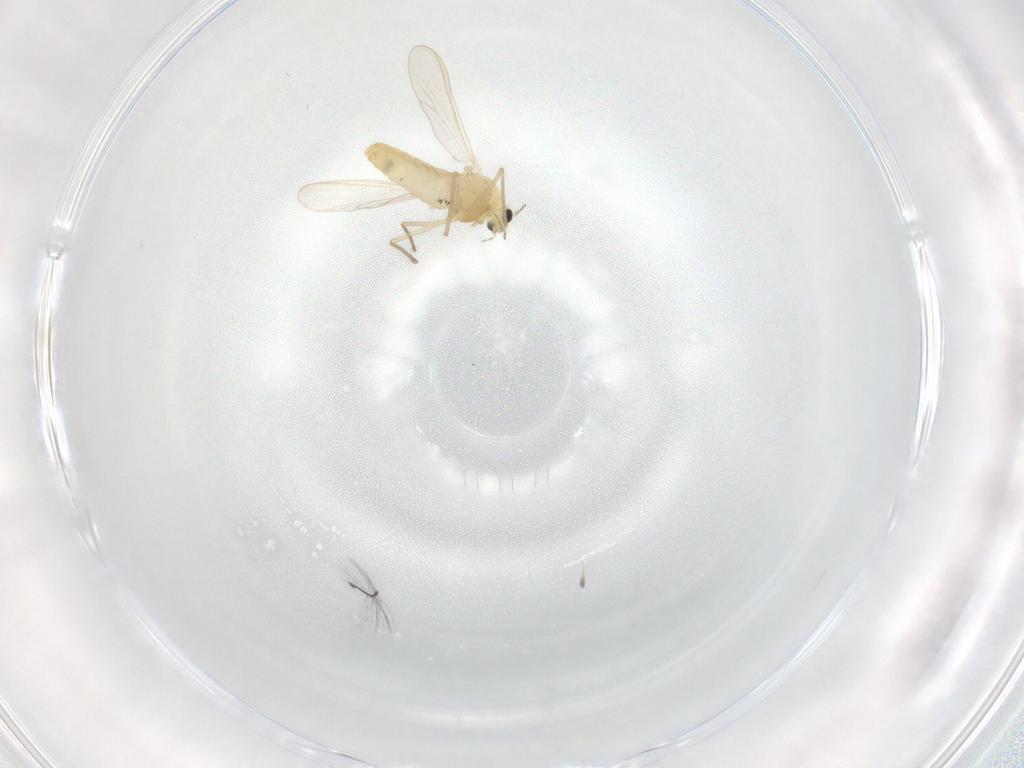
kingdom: Animalia
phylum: Arthropoda
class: Insecta
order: Diptera
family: Chironomidae
